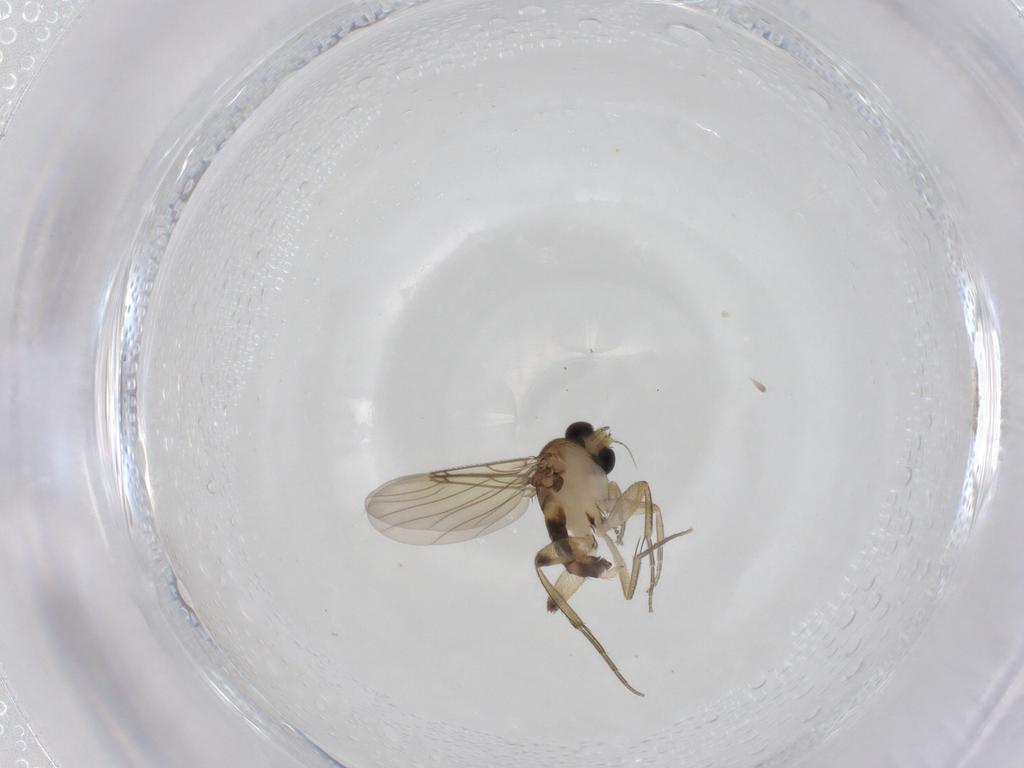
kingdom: Animalia
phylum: Arthropoda
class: Insecta
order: Diptera
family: Phoridae
